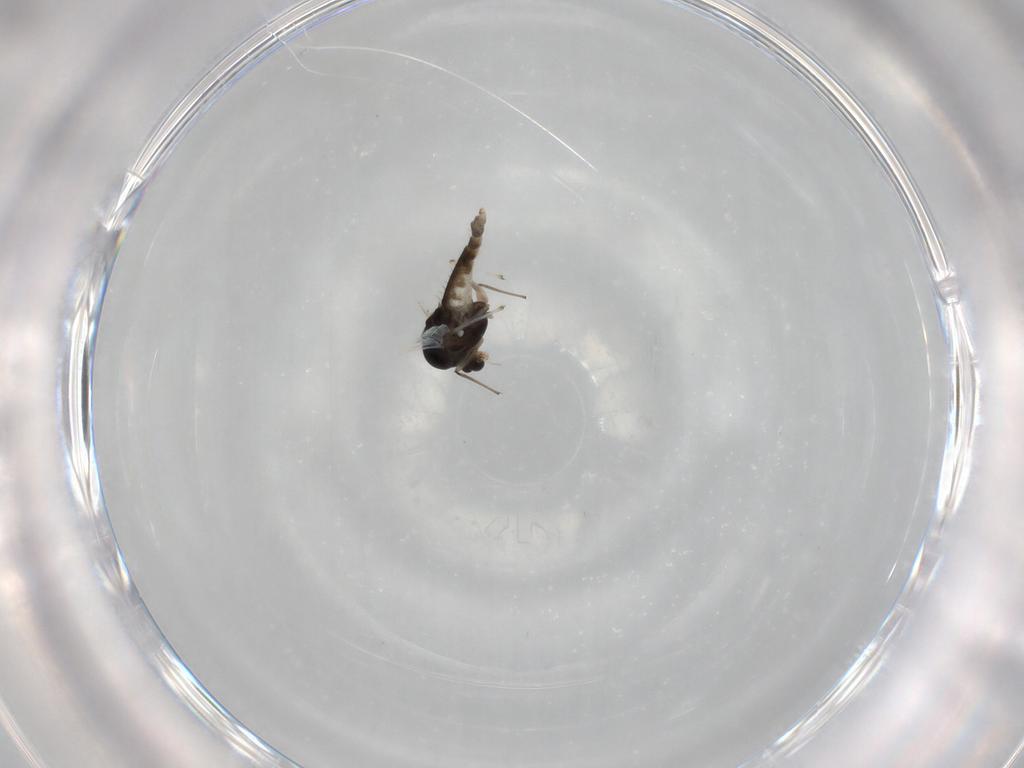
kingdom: Animalia
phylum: Arthropoda
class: Insecta
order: Diptera
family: Chironomidae
